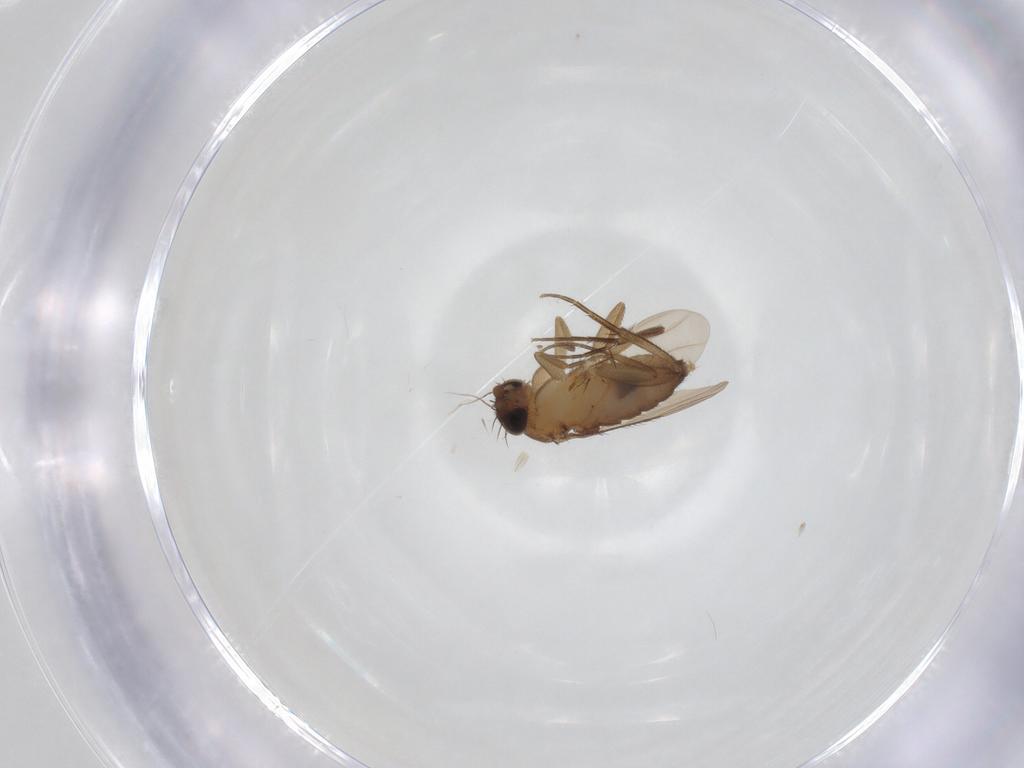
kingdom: Animalia
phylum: Arthropoda
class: Insecta
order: Diptera
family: Phoridae
